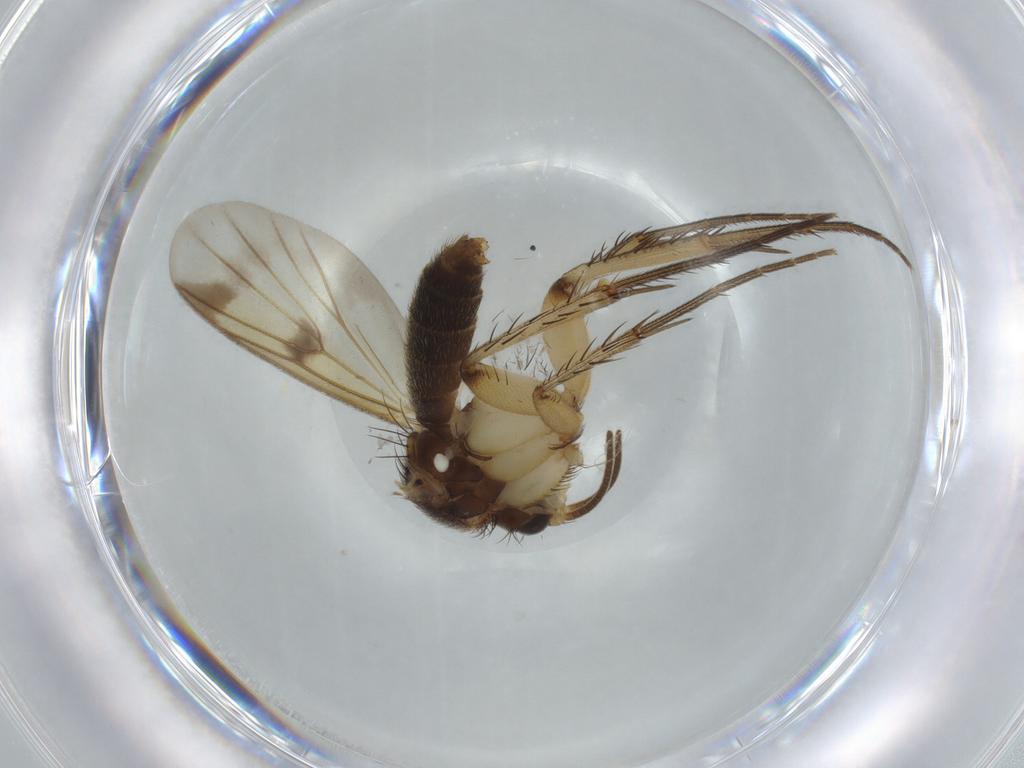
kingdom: Animalia
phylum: Arthropoda
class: Insecta
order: Diptera
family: Mycetophilidae
